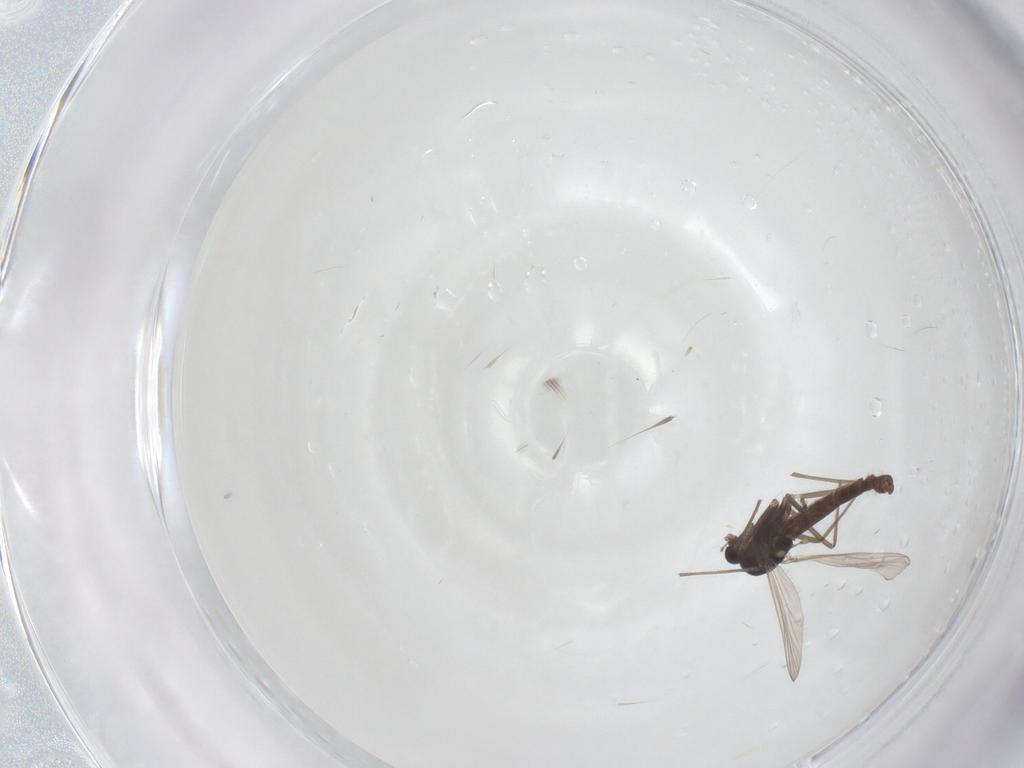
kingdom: Animalia
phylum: Arthropoda
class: Insecta
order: Diptera
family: Chironomidae
